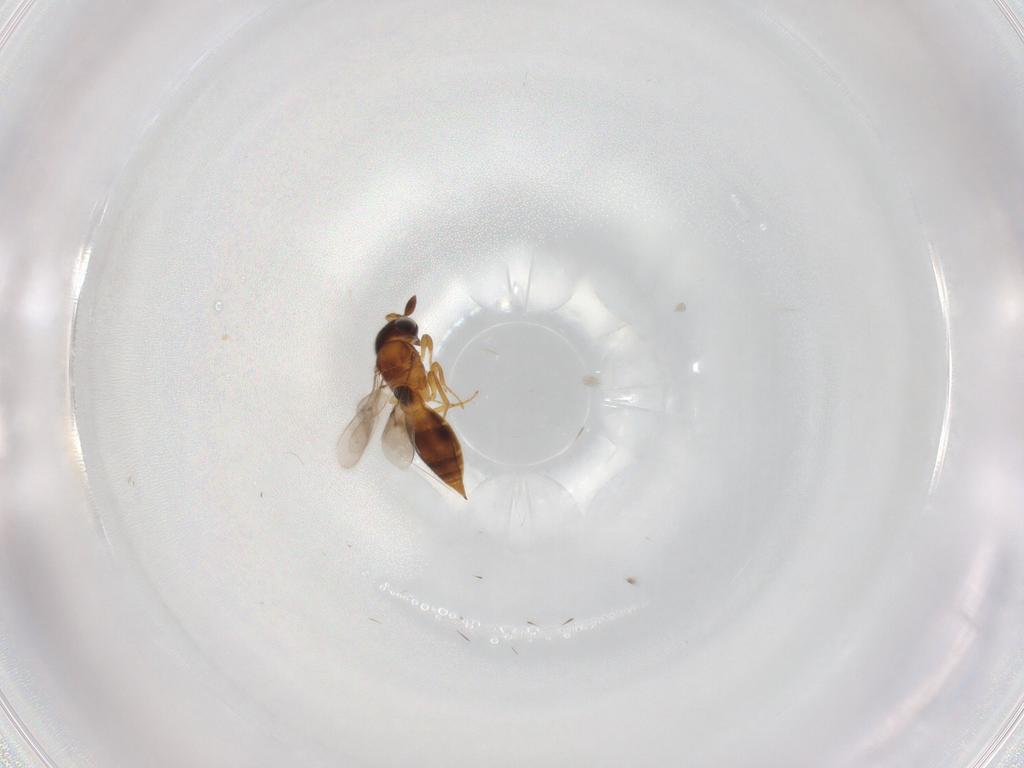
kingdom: Animalia
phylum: Arthropoda
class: Insecta
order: Hymenoptera
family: Scelionidae
